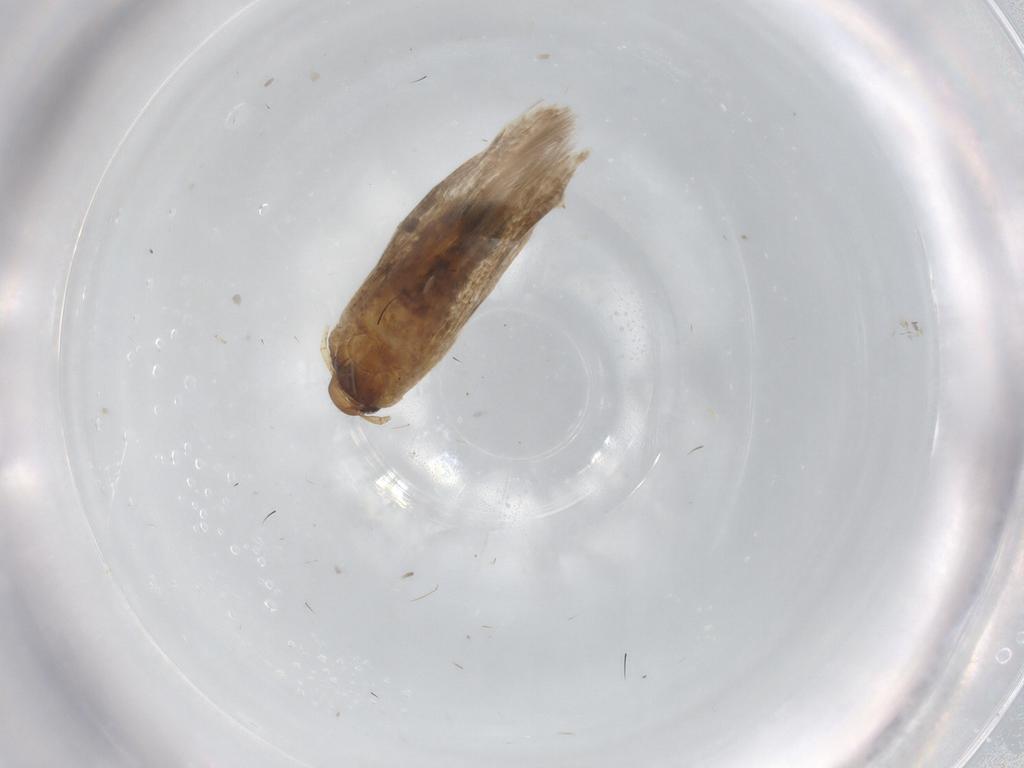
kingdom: Animalia
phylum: Arthropoda
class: Insecta
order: Lepidoptera
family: Cosmopterigidae
